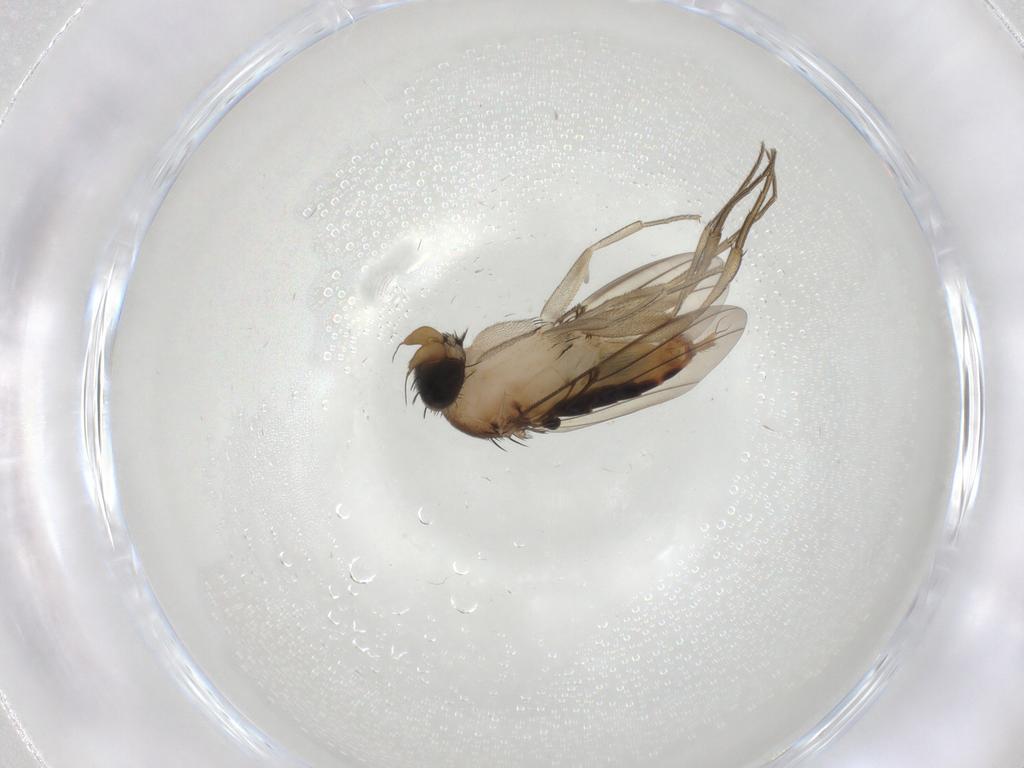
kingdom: Animalia
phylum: Arthropoda
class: Insecta
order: Diptera
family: Phoridae
